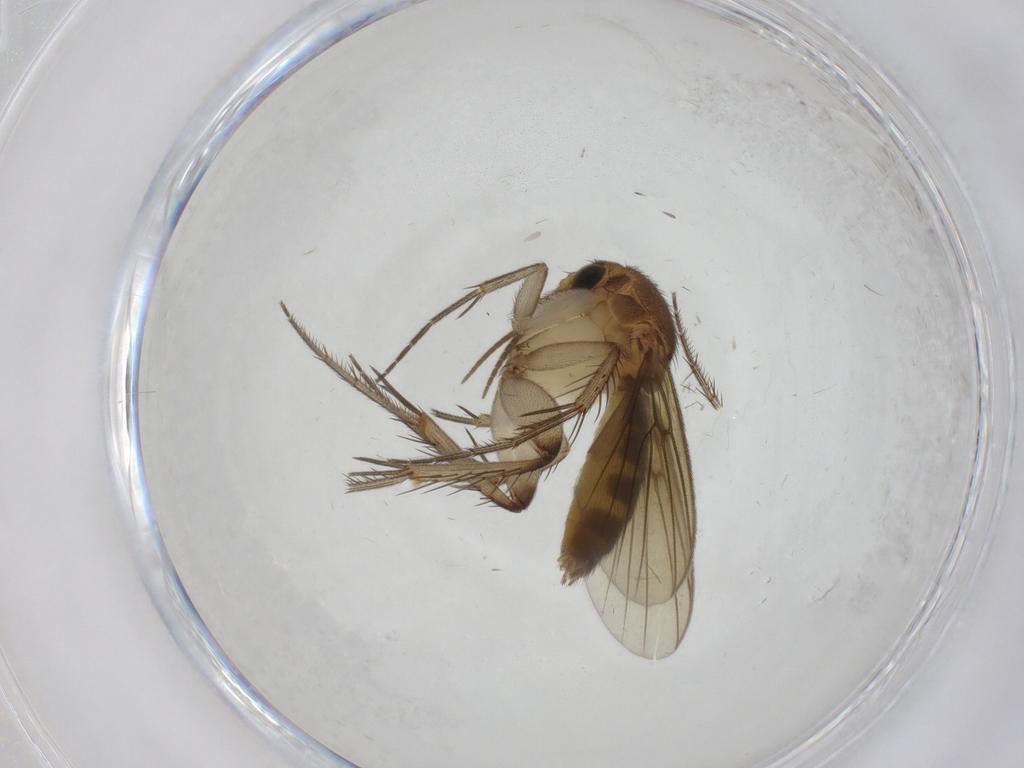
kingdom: Animalia
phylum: Arthropoda
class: Insecta
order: Diptera
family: Mycetophilidae
